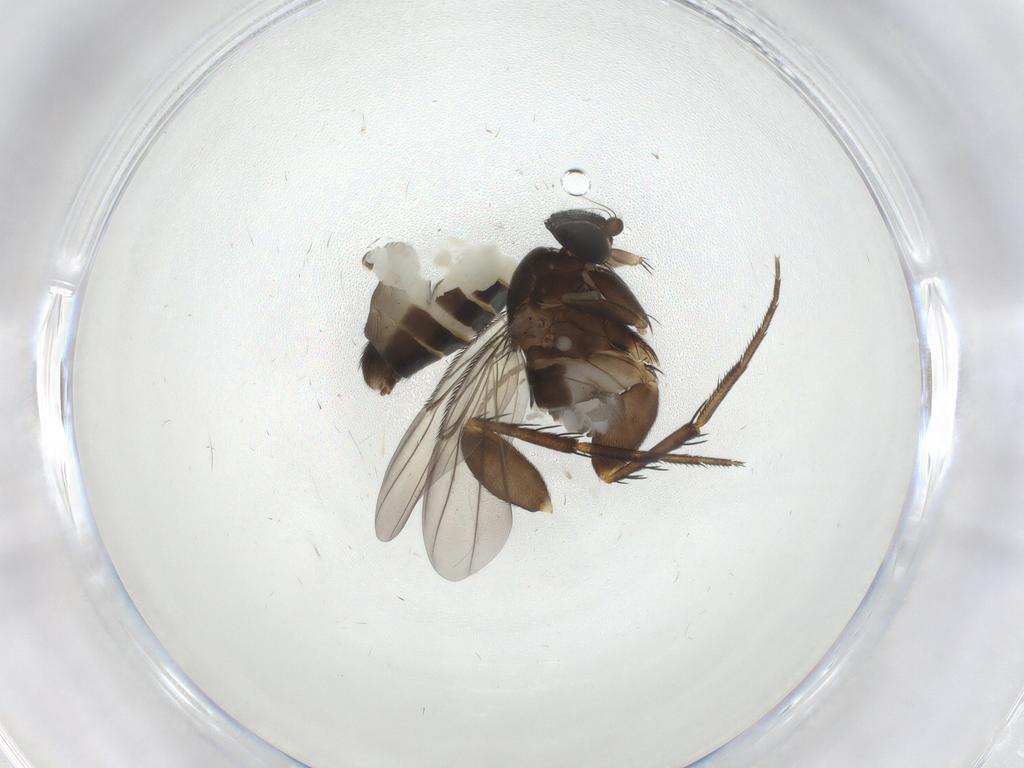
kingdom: Animalia
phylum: Arthropoda
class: Insecta
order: Diptera
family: Phoridae
